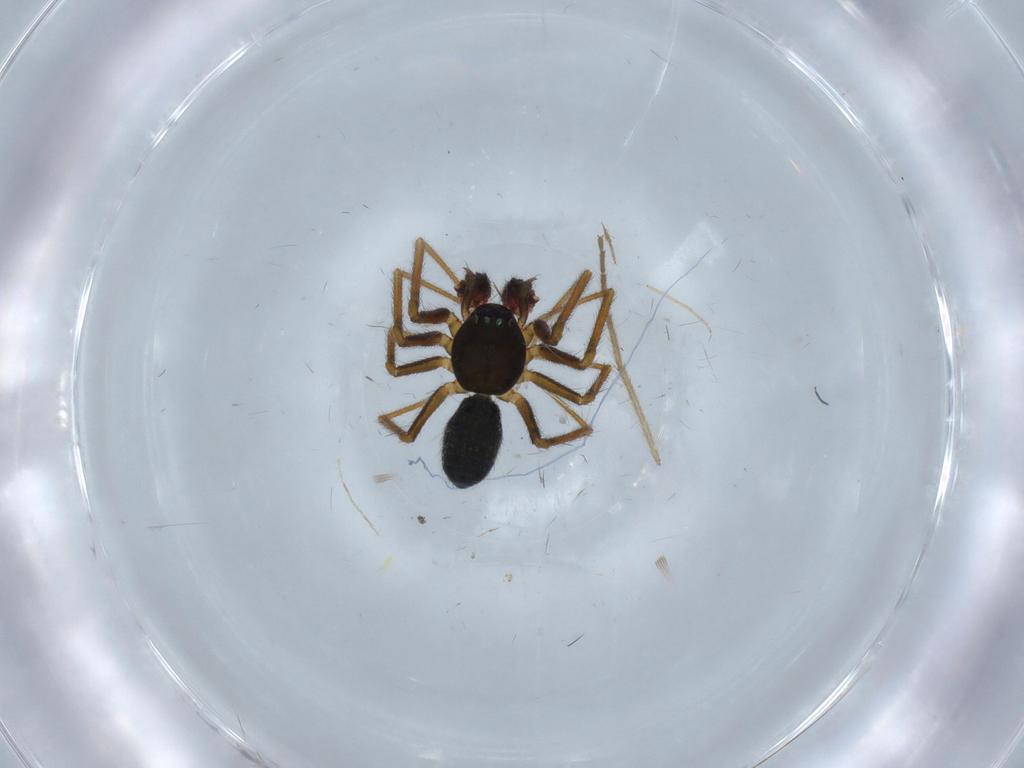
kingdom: Animalia
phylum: Arthropoda
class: Arachnida
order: Araneae
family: Linyphiidae
